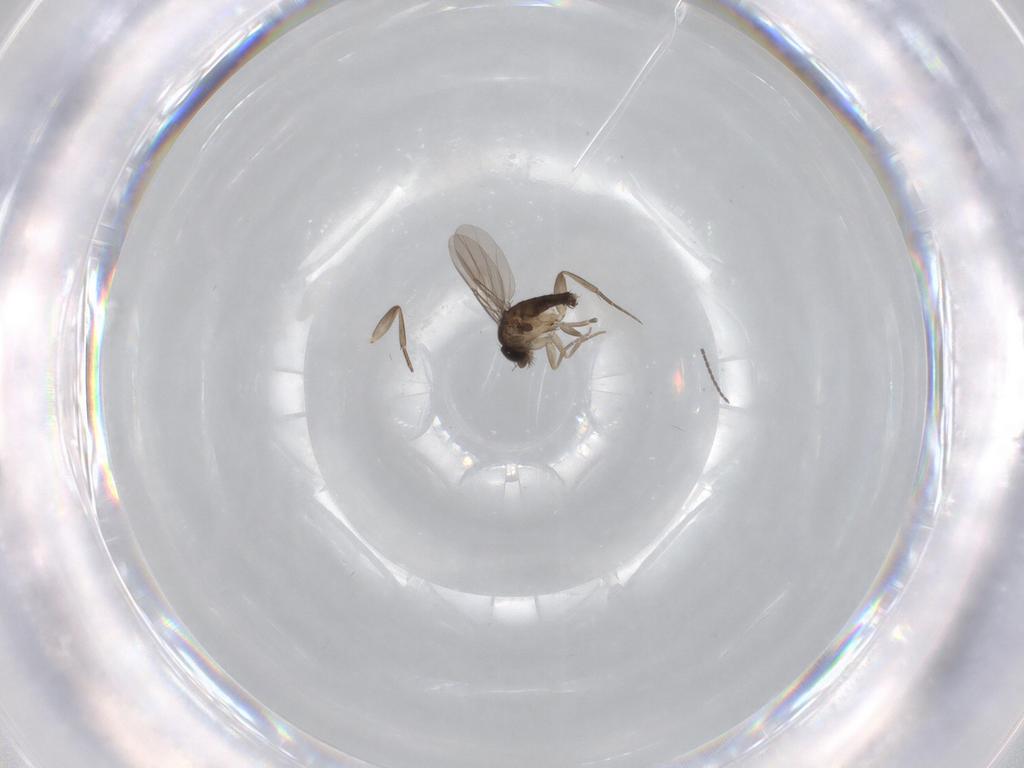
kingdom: Animalia
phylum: Arthropoda
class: Insecta
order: Diptera
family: Phoridae
